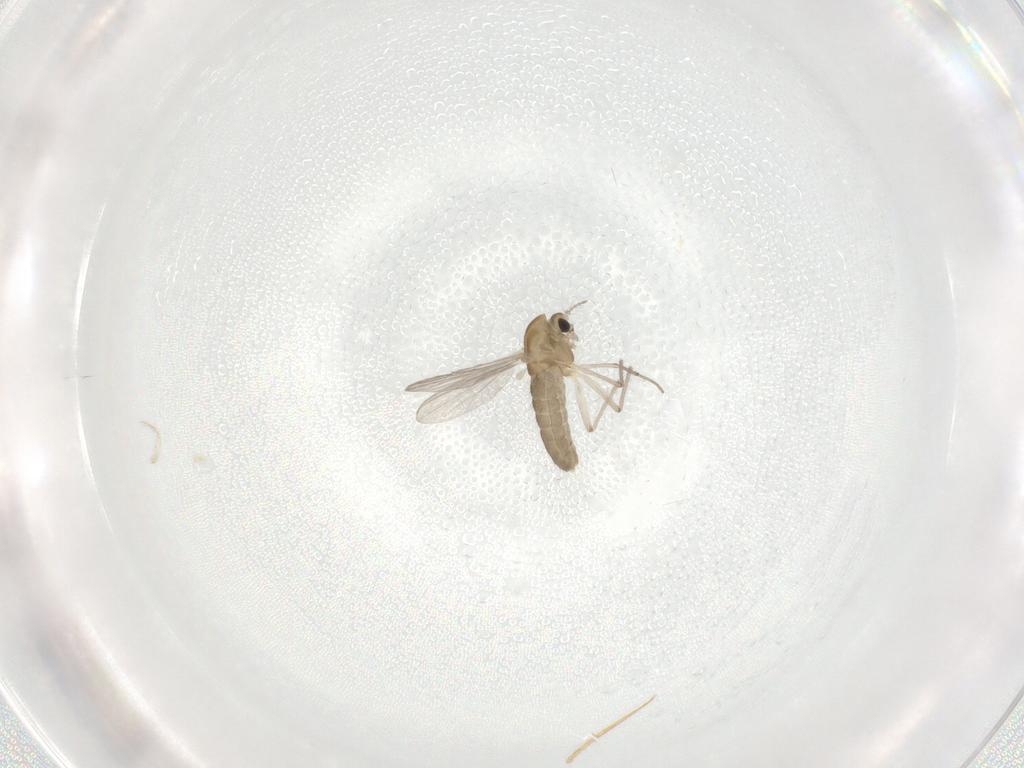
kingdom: Animalia
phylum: Arthropoda
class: Insecta
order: Diptera
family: Chironomidae
